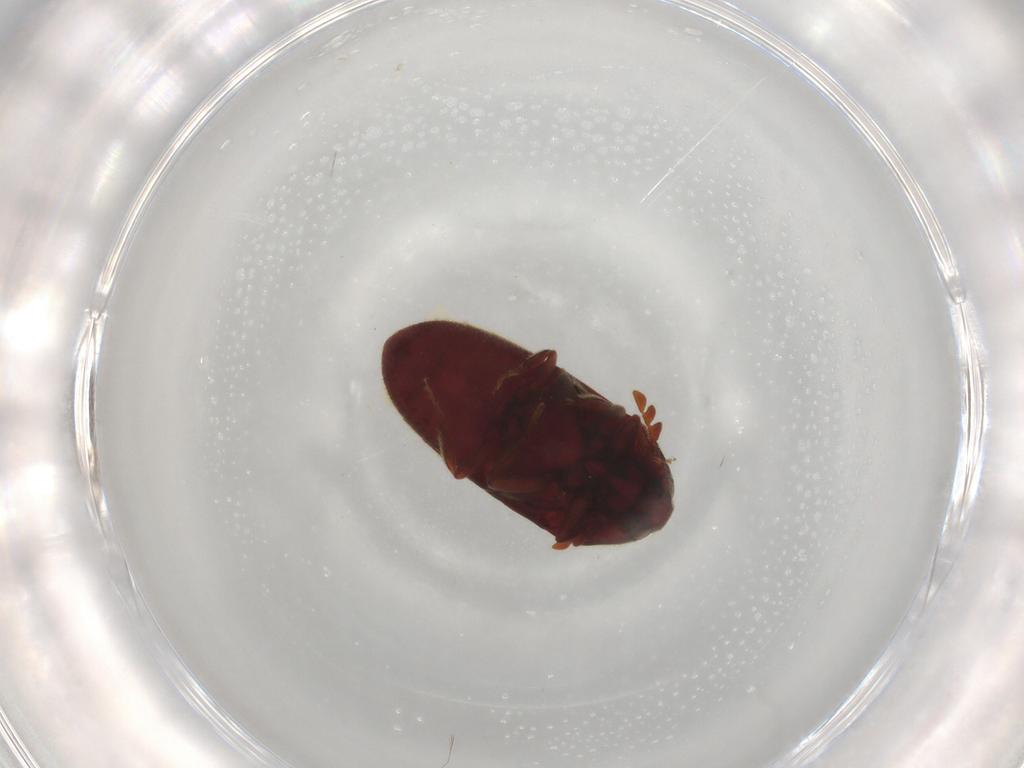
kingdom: Animalia
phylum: Arthropoda
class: Insecta
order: Coleoptera
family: Throscidae
